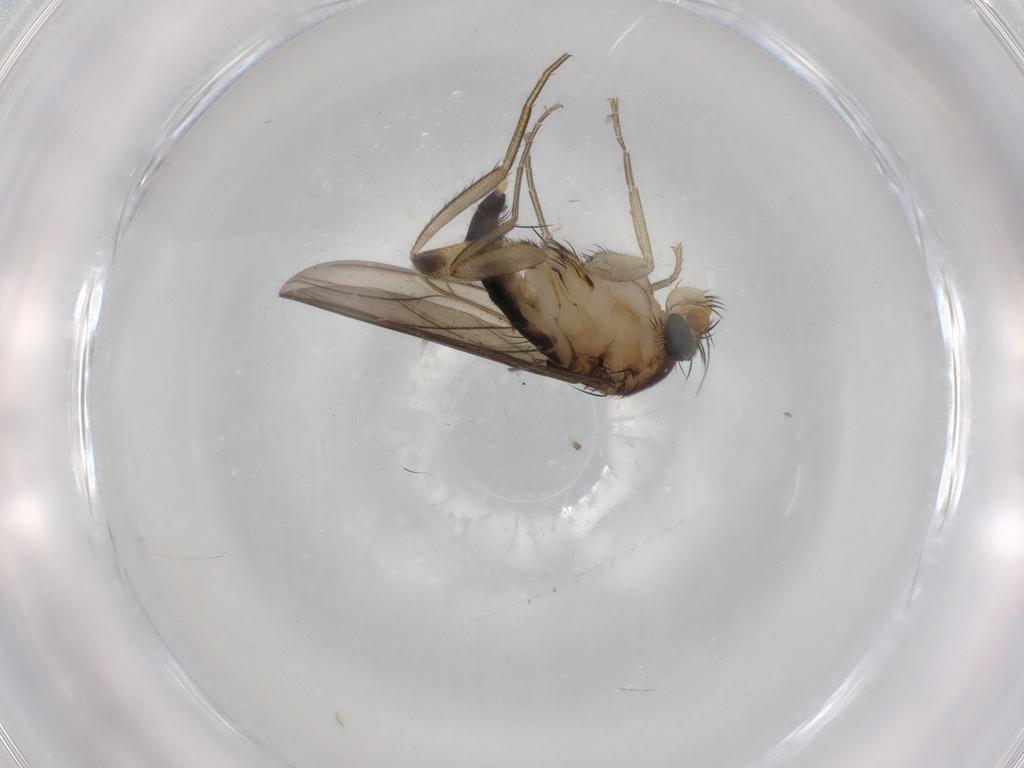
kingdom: Animalia
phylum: Arthropoda
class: Insecta
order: Diptera
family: Phoridae
